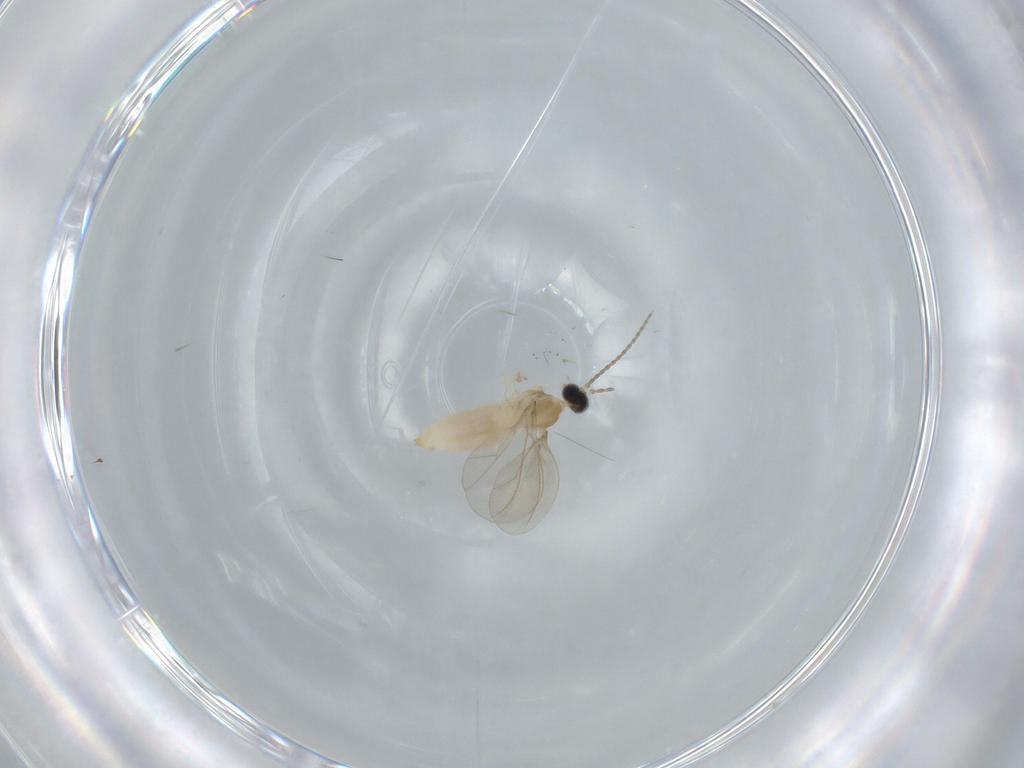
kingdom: Animalia
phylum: Arthropoda
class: Insecta
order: Diptera
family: Cecidomyiidae
